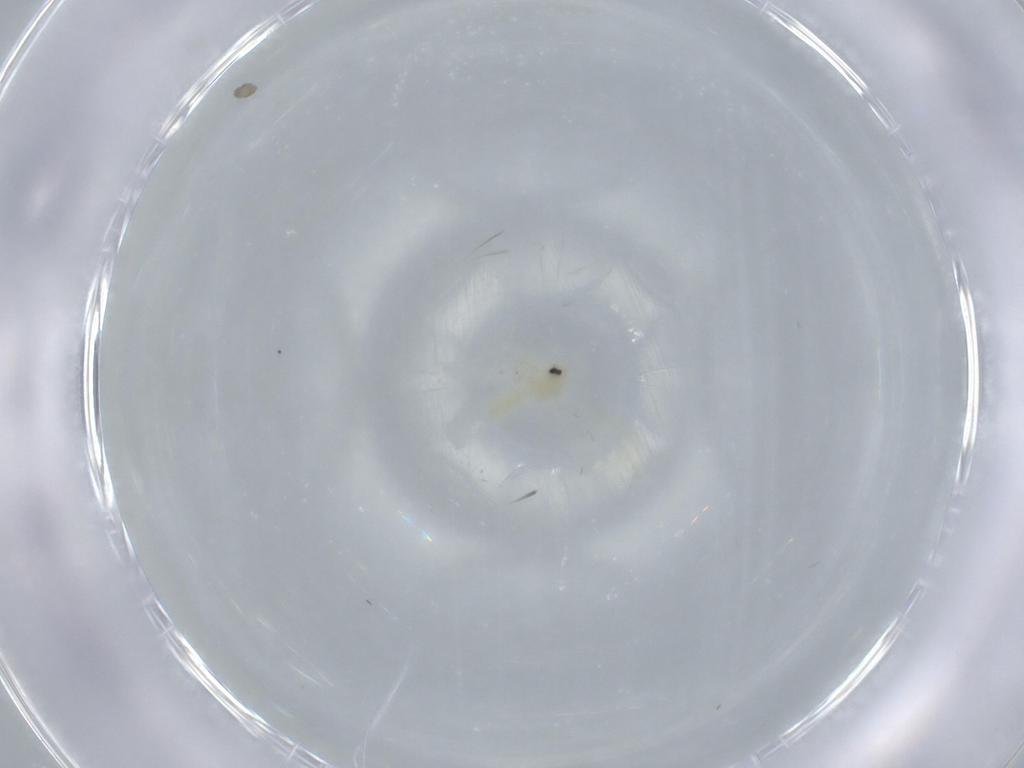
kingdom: Animalia
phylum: Arthropoda
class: Insecta
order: Hemiptera
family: Aleyrodidae
